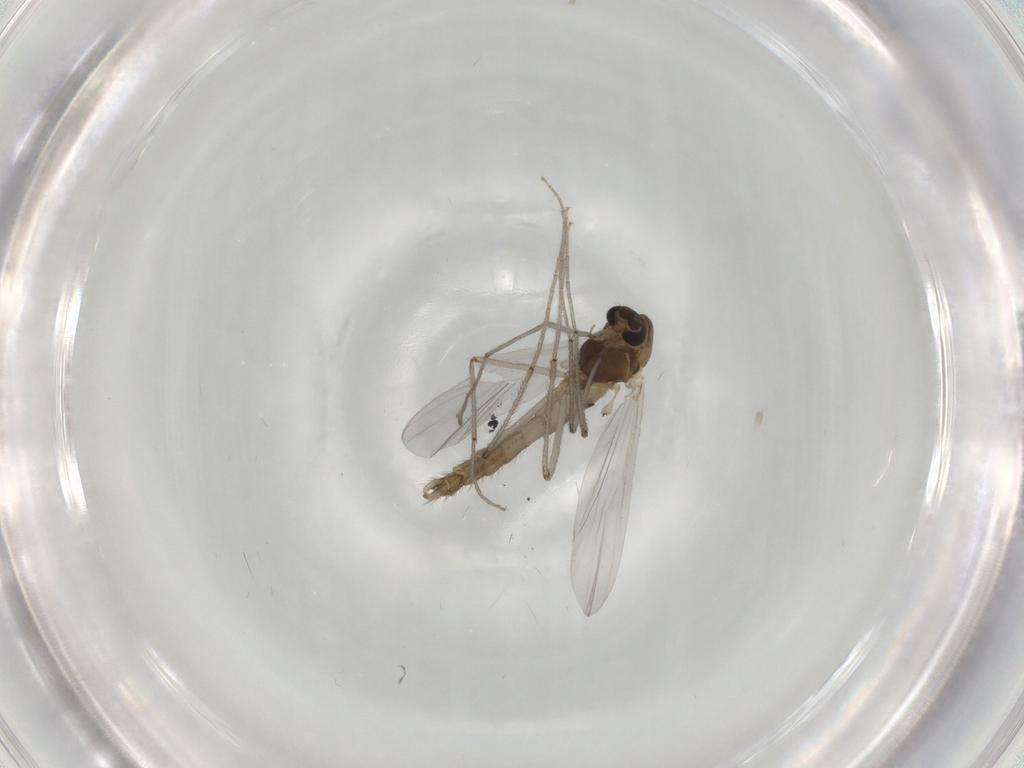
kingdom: Animalia
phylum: Arthropoda
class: Insecta
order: Diptera
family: Chironomidae
